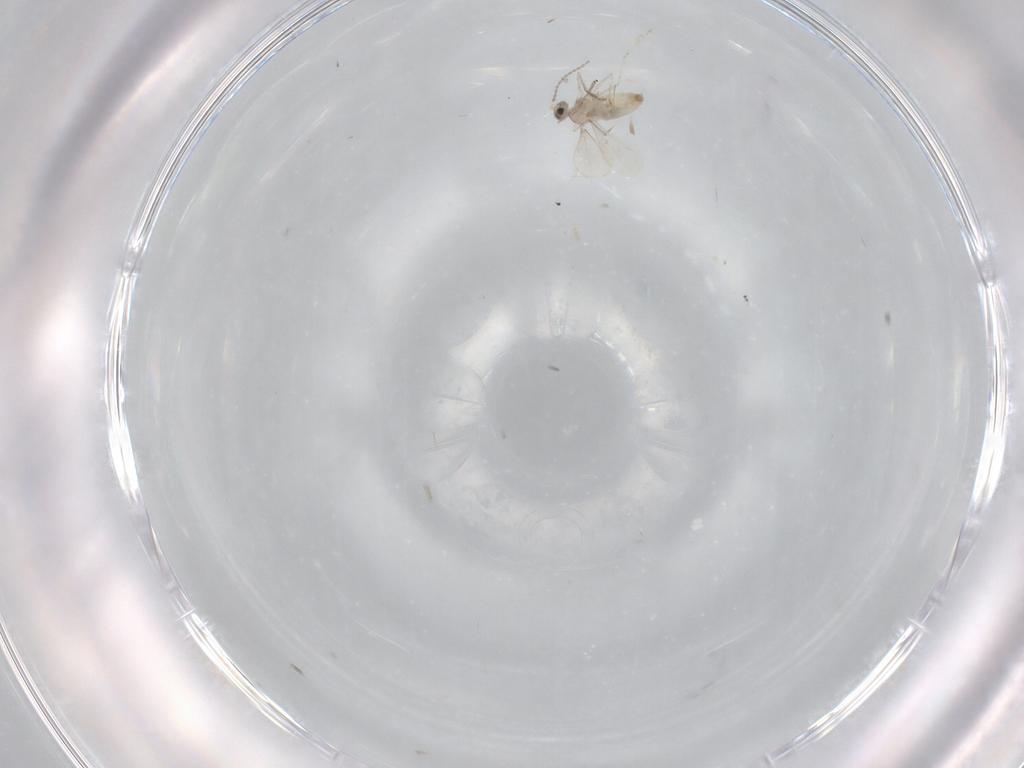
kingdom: Animalia
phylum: Arthropoda
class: Insecta
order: Diptera
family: Cecidomyiidae
